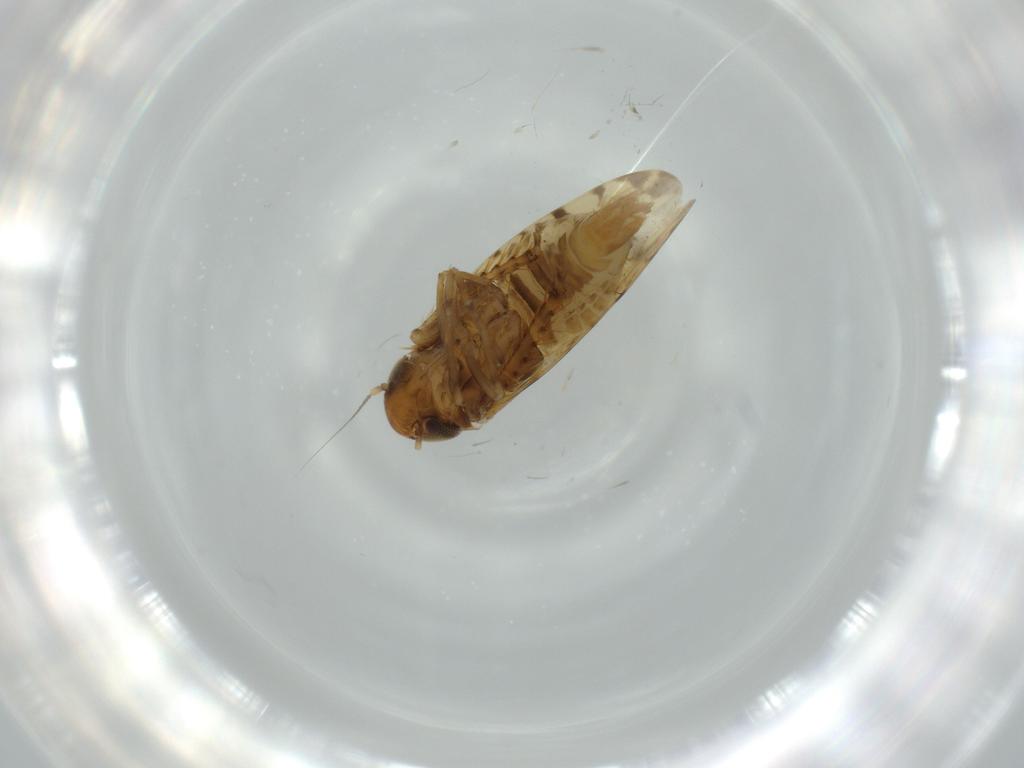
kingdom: Animalia
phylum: Arthropoda
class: Insecta
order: Hemiptera
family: Cicadellidae
